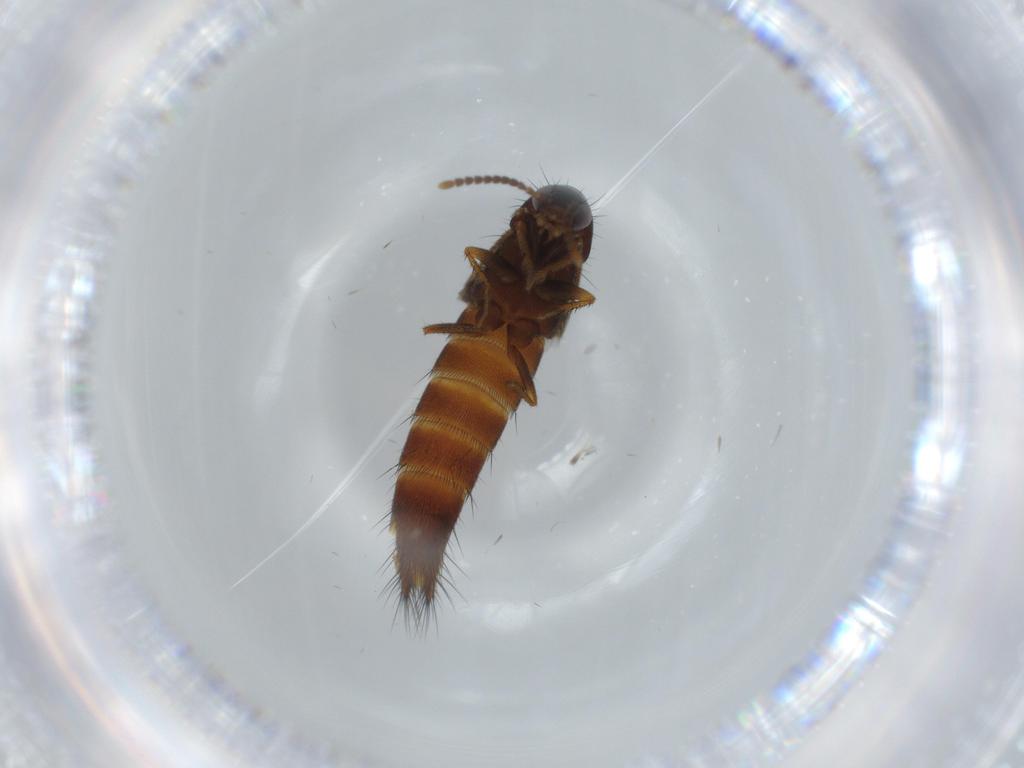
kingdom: Animalia
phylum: Arthropoda
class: Insecta
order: Coleoptera
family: Staphylinidae
